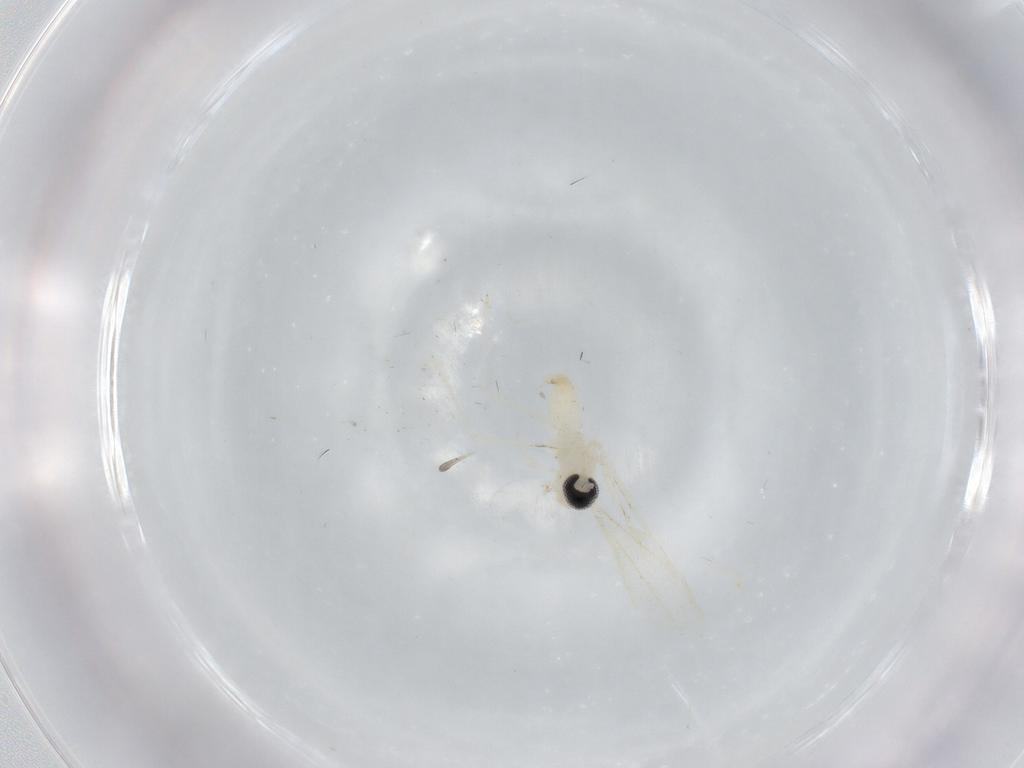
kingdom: Animalia
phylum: Arthropoda
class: Insecta
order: Diptera
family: Cecidomyiidae
